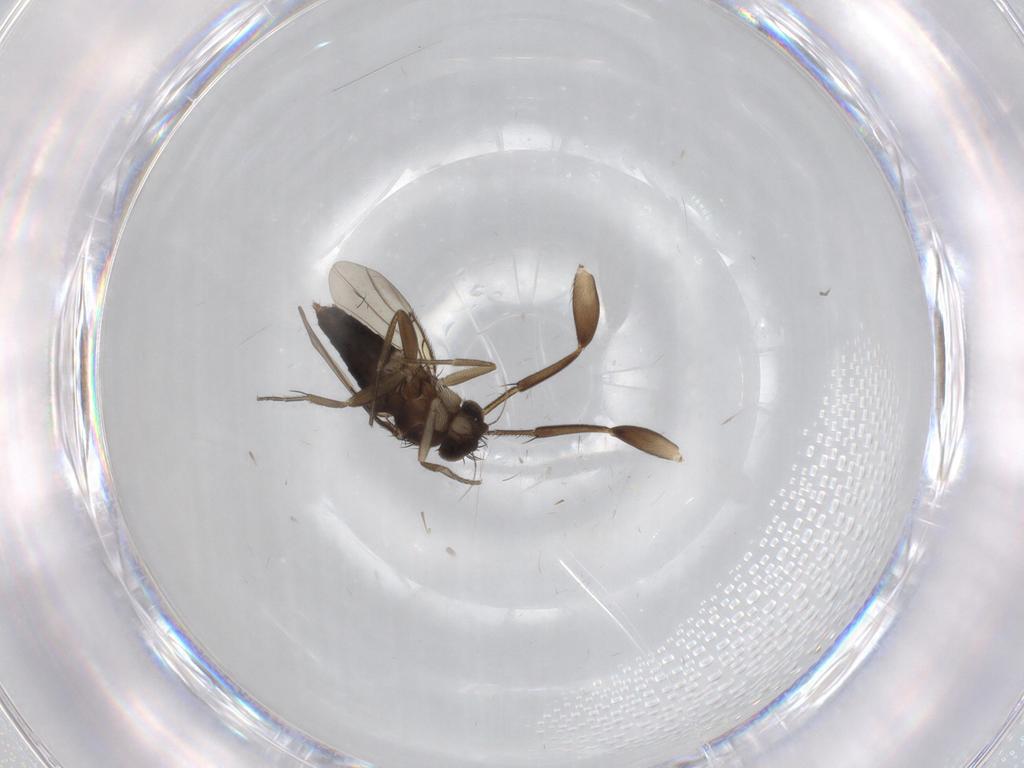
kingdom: Animalia
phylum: Arthropoda
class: Insecta
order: Diptera
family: Phoridae
